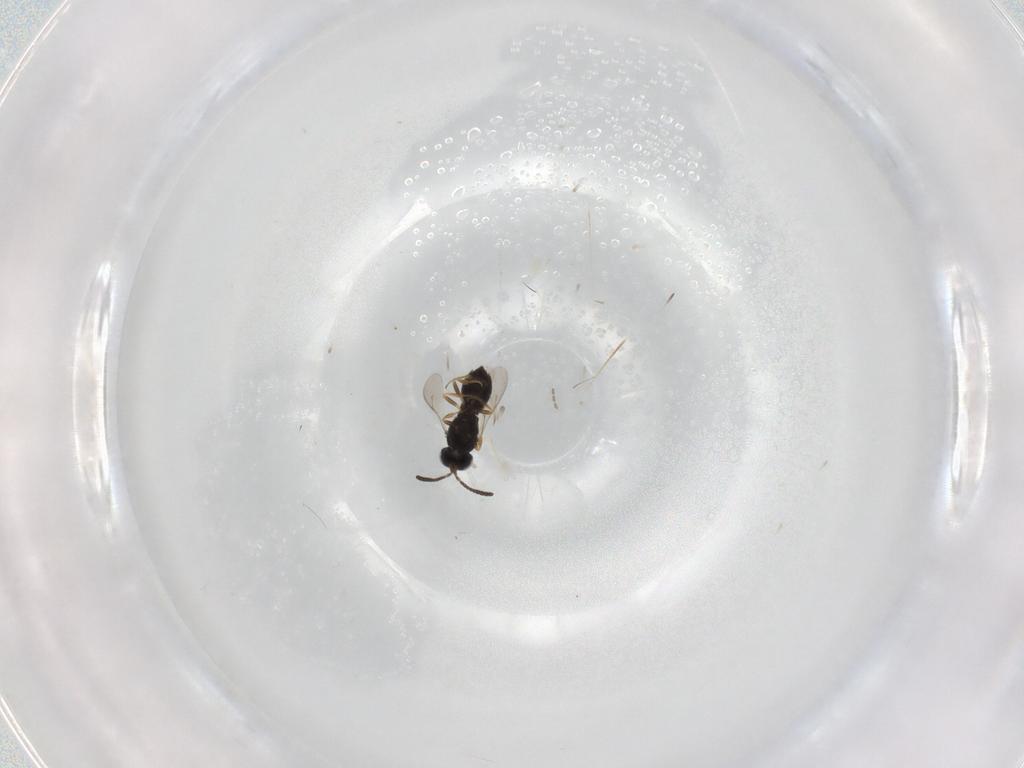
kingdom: Animalia
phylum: Arthropoda
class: Insecta
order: Hymenoptera
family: Scelionidae
